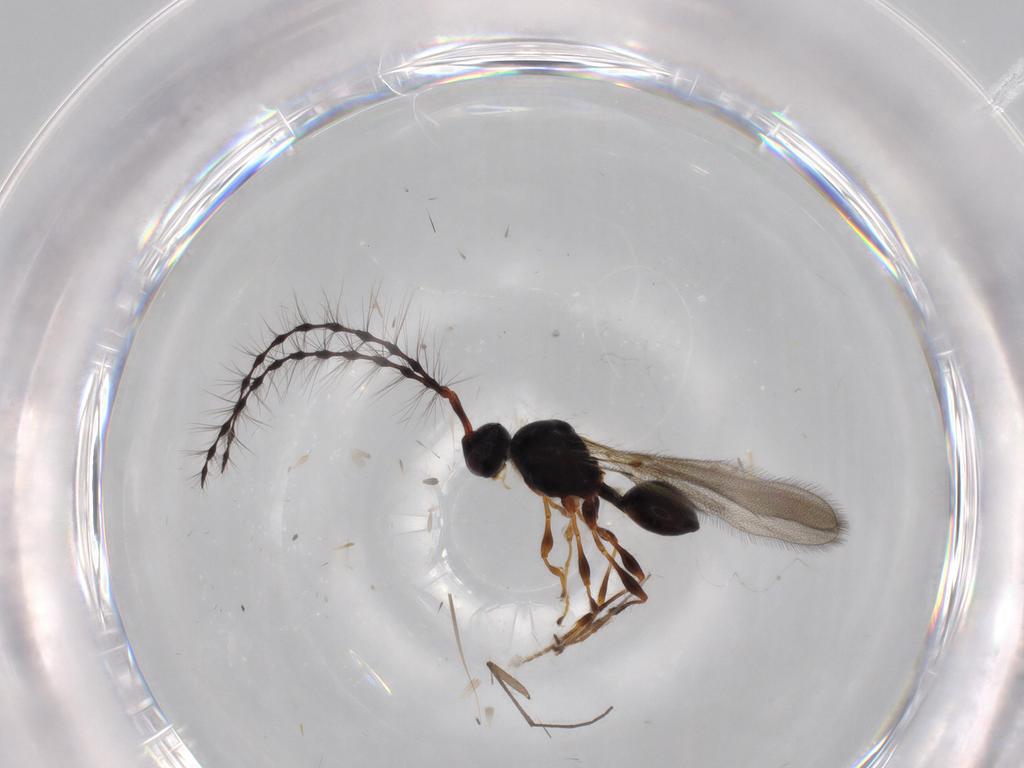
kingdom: Animalia
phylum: Arthropoda
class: Insecta
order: Hymenoptera
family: Diapriidae
